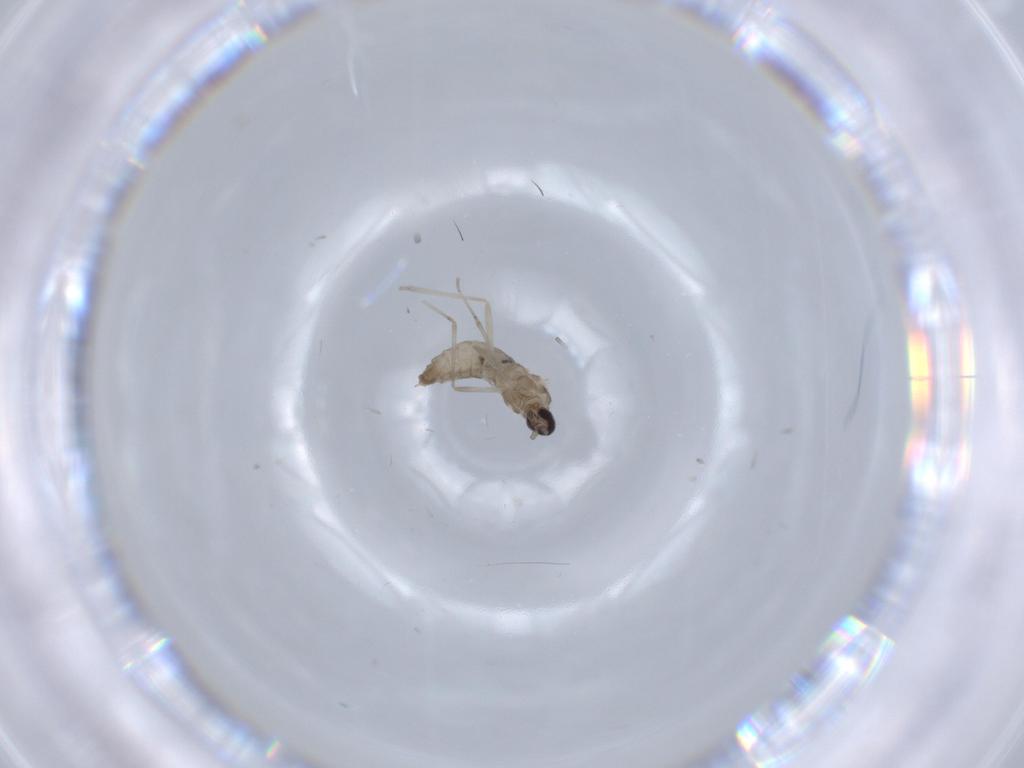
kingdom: Animalia
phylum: Arthropoda
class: Insecta
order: Diptera
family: Cecidomyiidae
